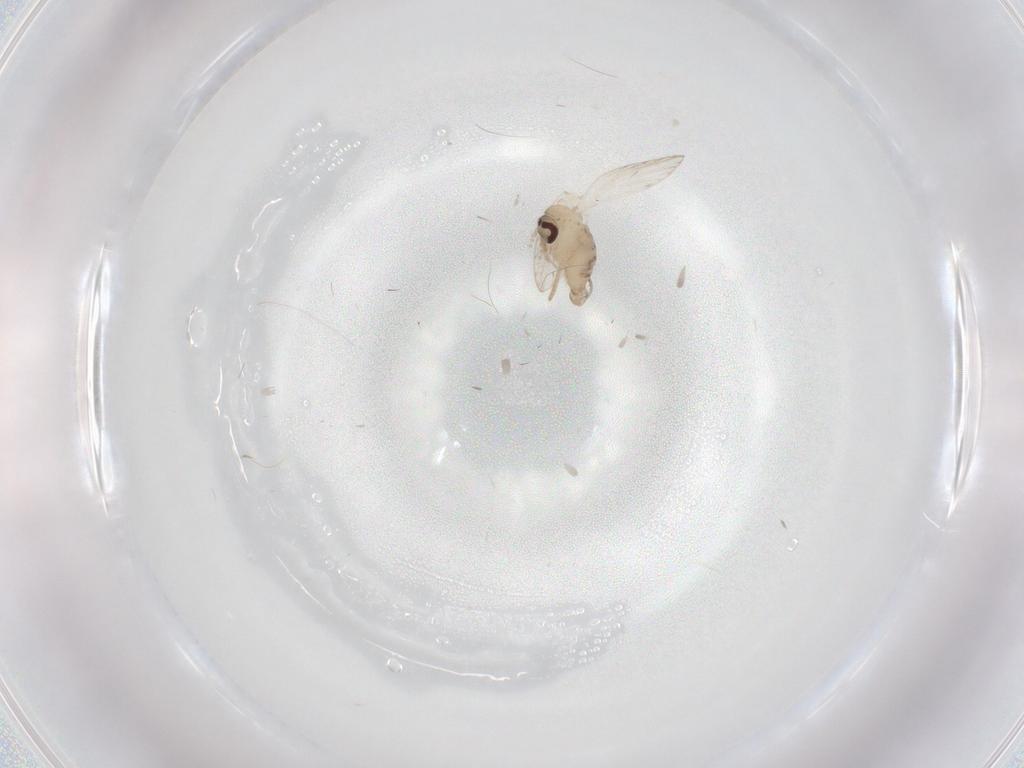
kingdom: Animalia
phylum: Arthropoda
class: Insecta
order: Diptera
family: Psychodidae
